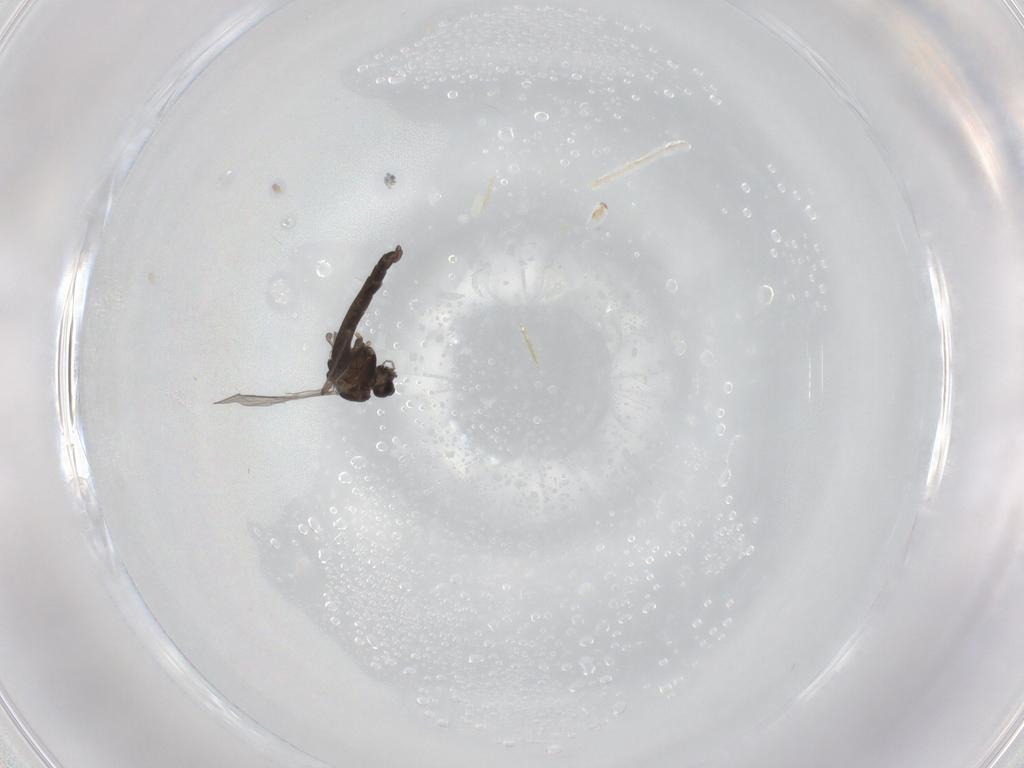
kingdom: Animalia
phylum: Arthropoda
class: Insecta
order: Diptera
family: Chironomidae
